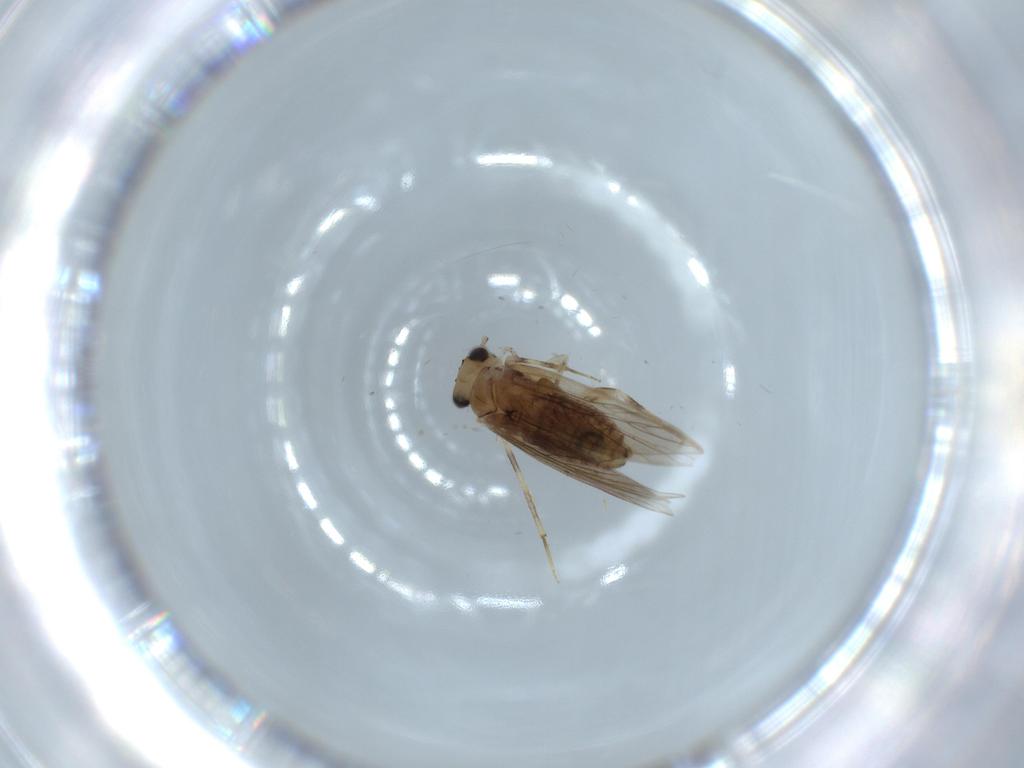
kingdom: Animalia
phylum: Arthropoda
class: Insecta
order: Psocodea
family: Lepidopsocidae
